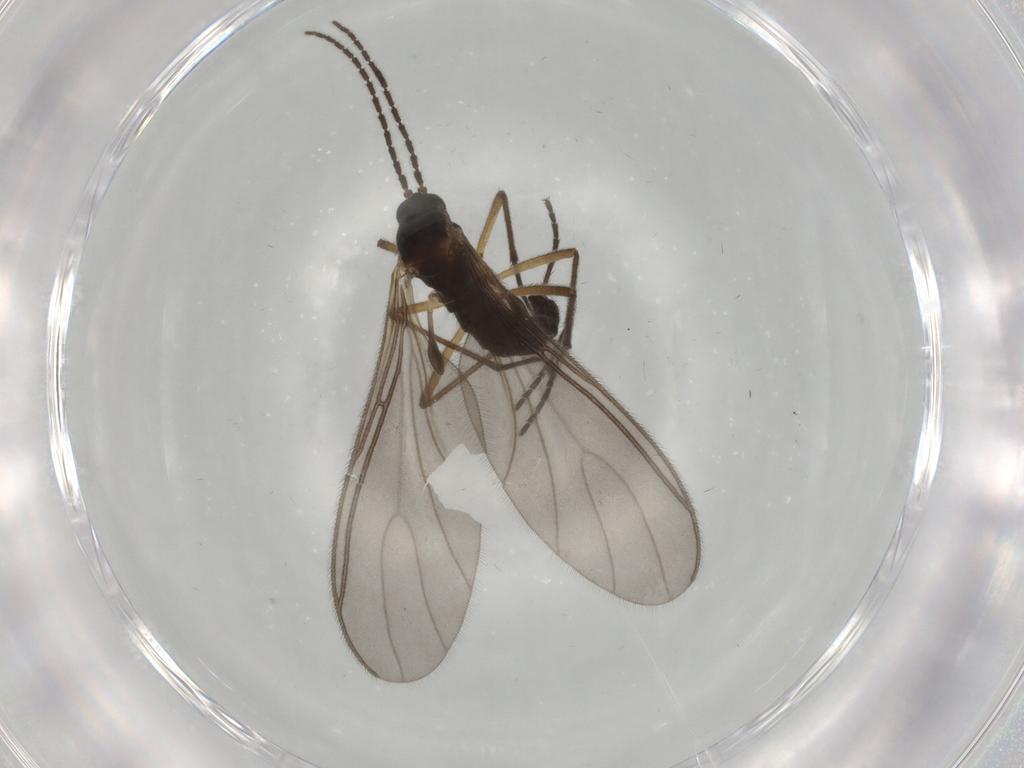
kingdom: Animalia
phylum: Arthropoda
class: Insecta
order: Diptera
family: Sciaridae
